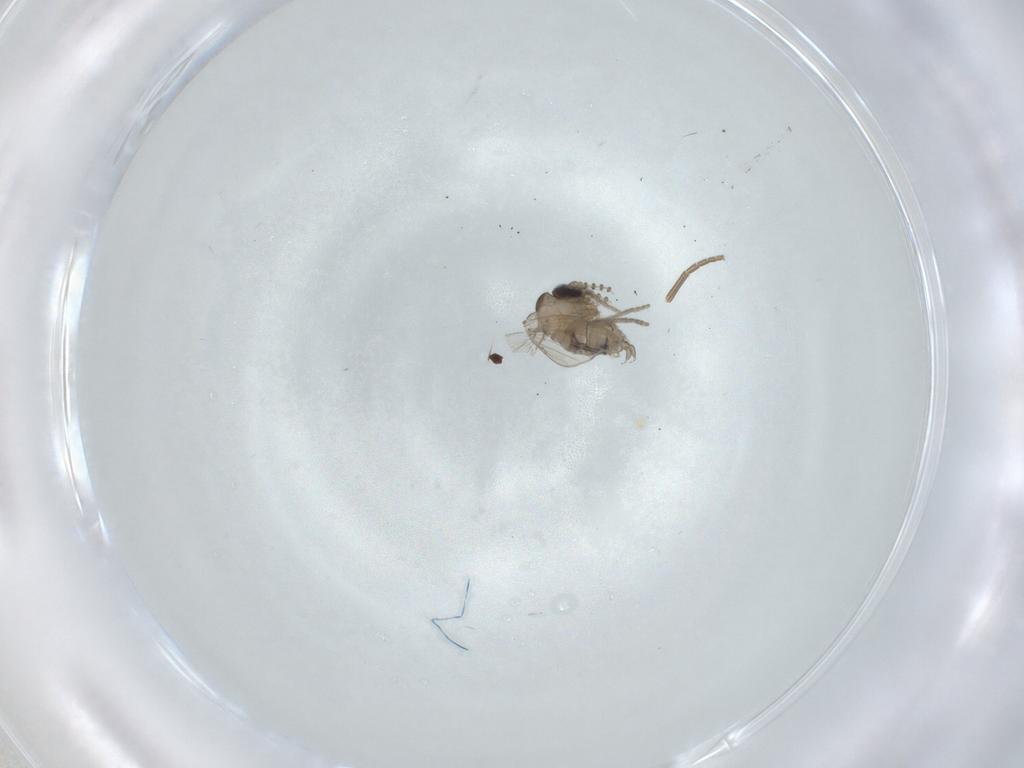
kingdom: Animalia
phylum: Arthropoda
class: Insecta
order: Diptera
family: Psychodidae
